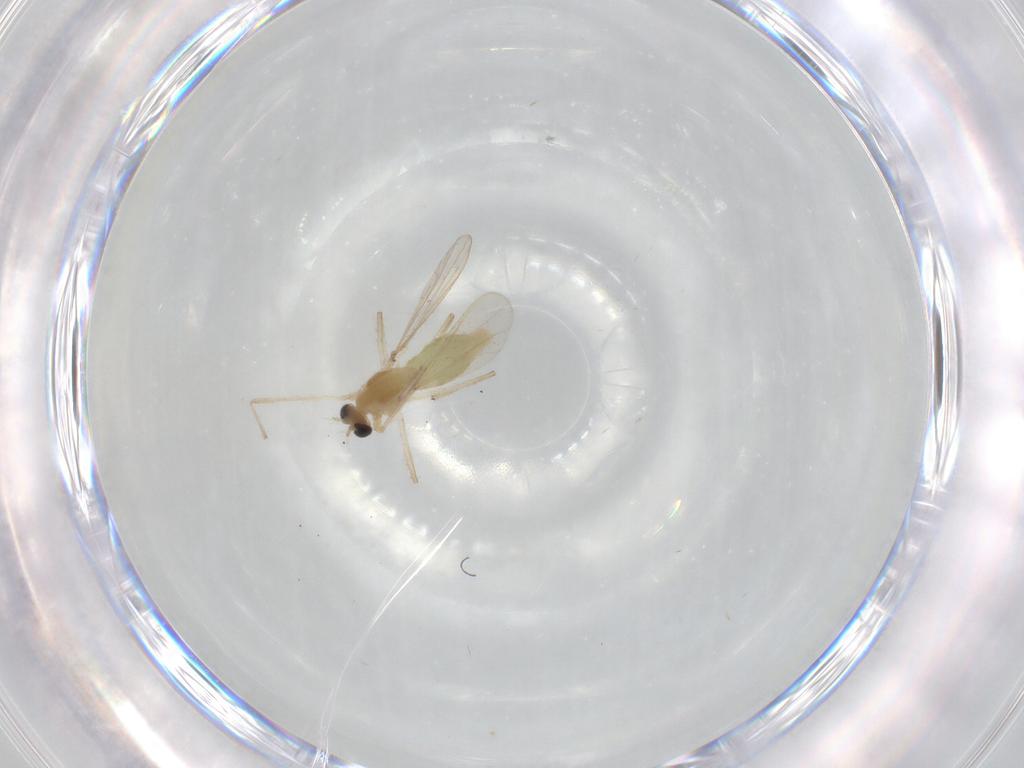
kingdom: Animalia
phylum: Arthropoda
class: Insecta
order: Diptera
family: Chironomidae
